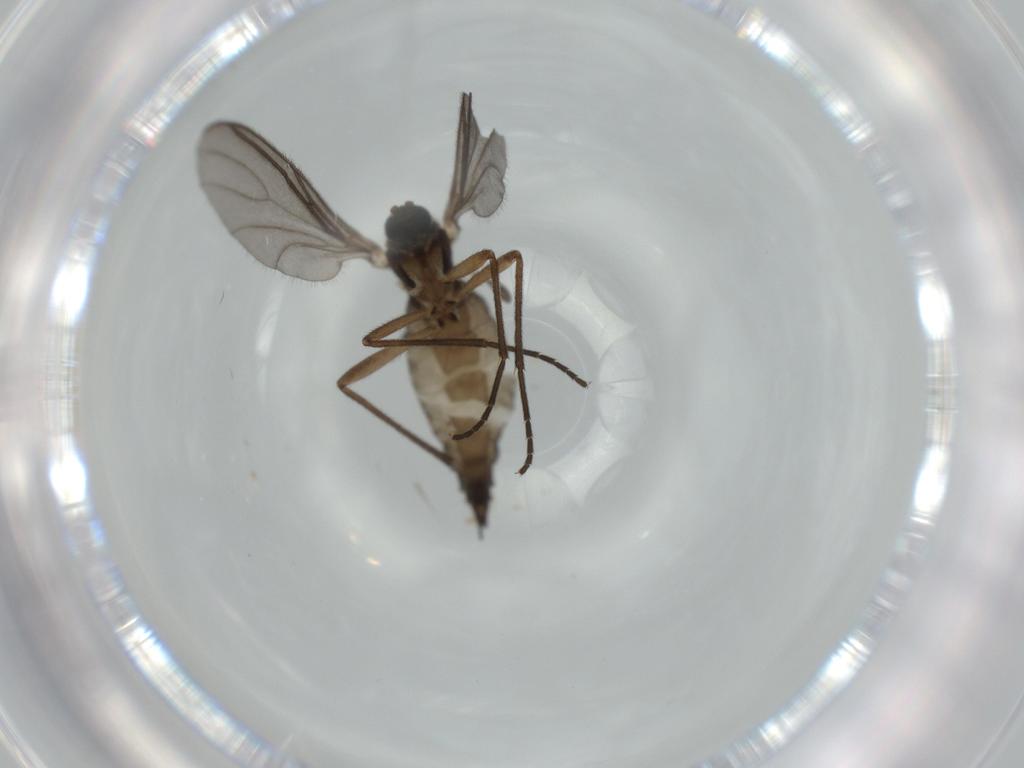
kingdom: Animalia
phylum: Arthropoda
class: Insecta
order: Diptera
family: Sciaridae
